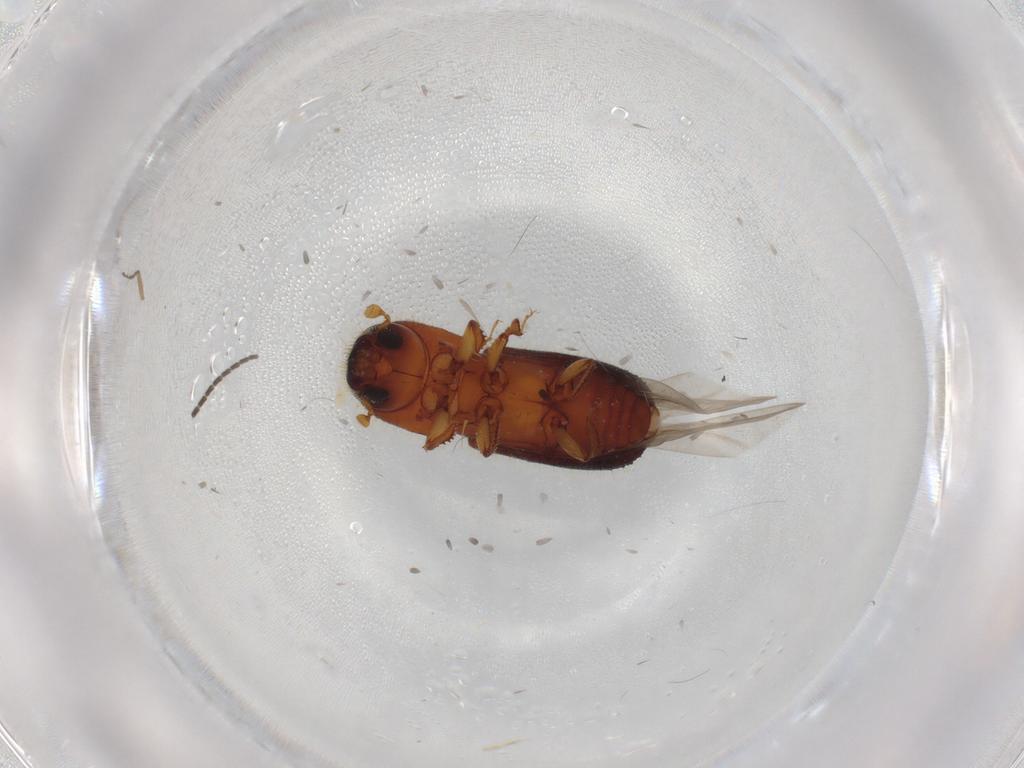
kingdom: Animalia
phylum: Arthropoda
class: Insecta
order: Coleoptera
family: Curculionidae
